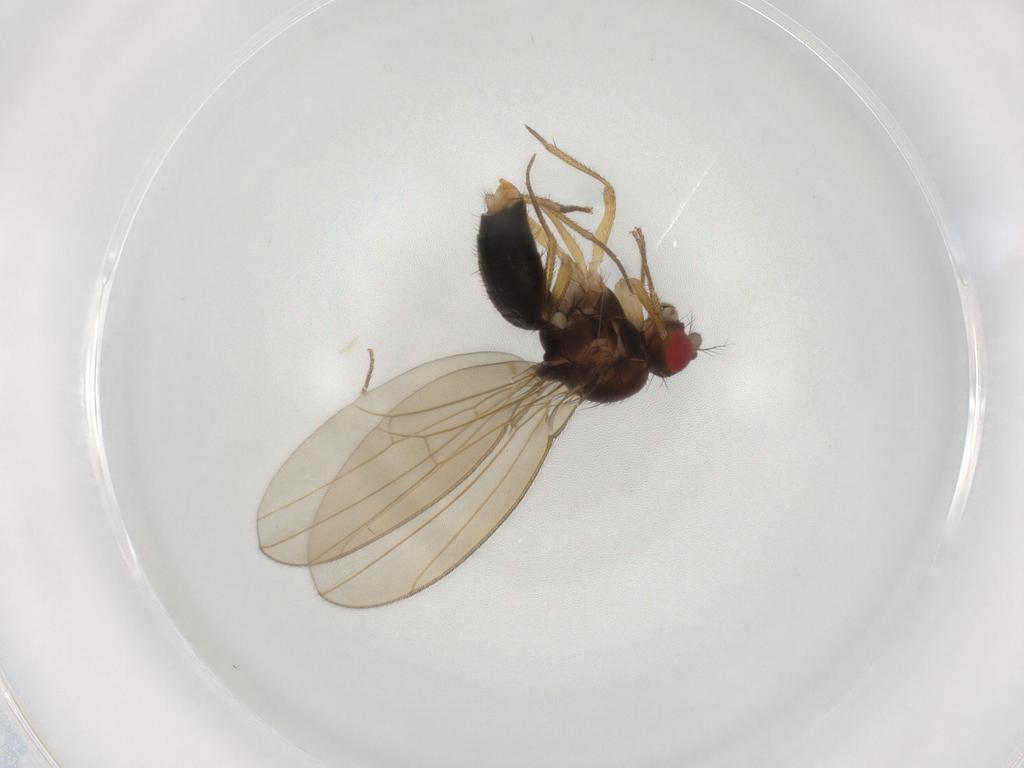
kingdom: Animalia
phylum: Arthropoda
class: Insecta
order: Diptera
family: Drosophilidae
